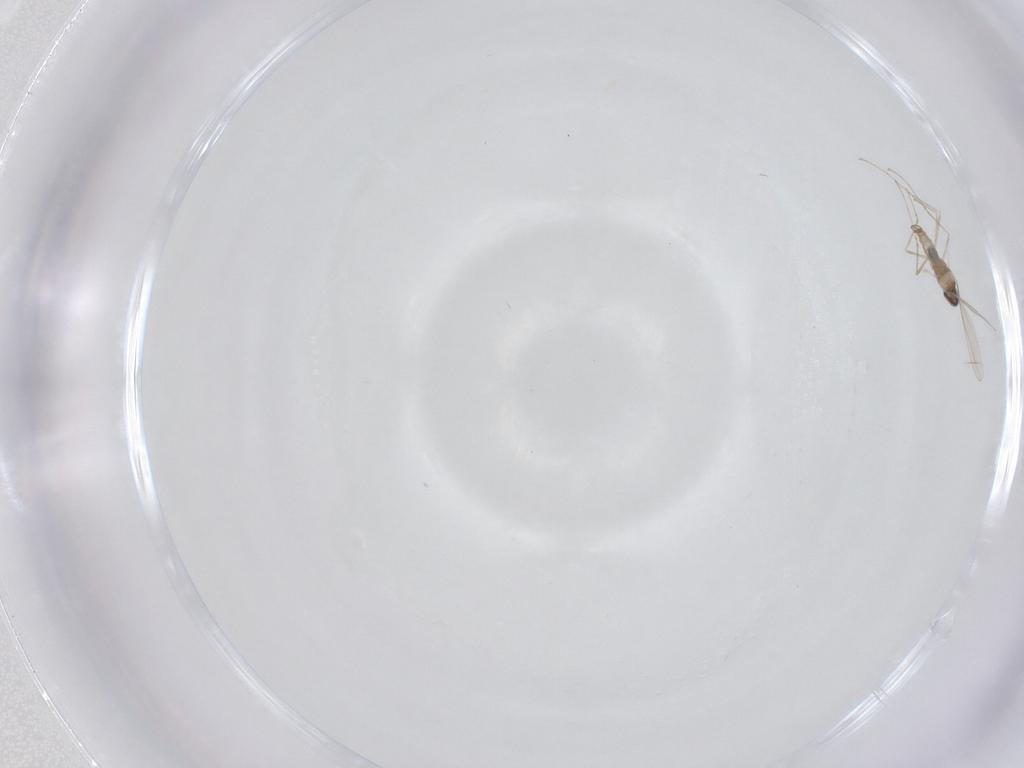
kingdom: Animalia
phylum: Arthropoda
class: Insecta
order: Diptera
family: Cecidomyiidae
